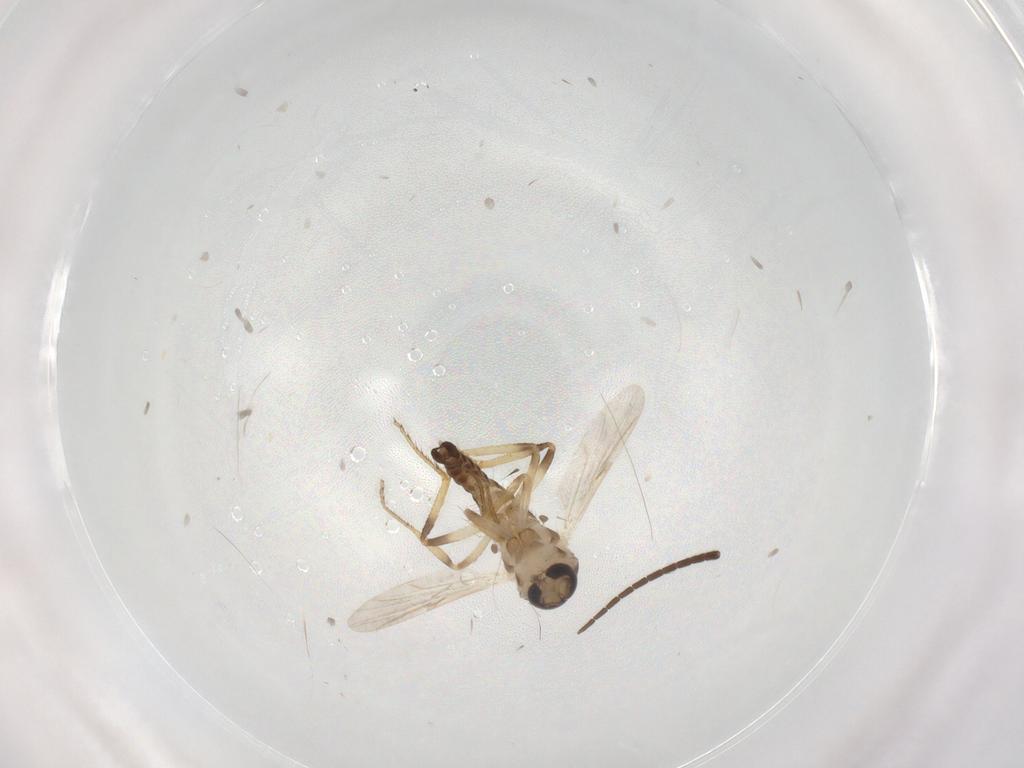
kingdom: Animalia
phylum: Arthropoda
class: Insecta
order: Diptera
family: Ceratopogonidae
